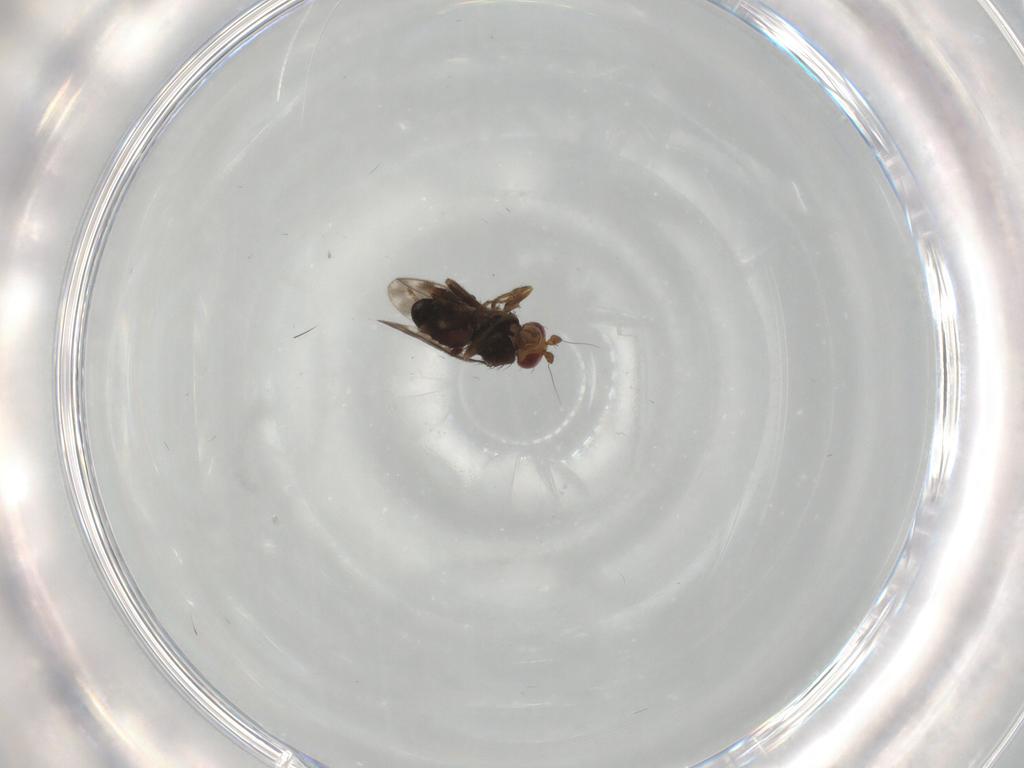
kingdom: Animalia
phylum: Arthropoda
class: Insecta
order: Diptera
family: Sphaeroceridae
